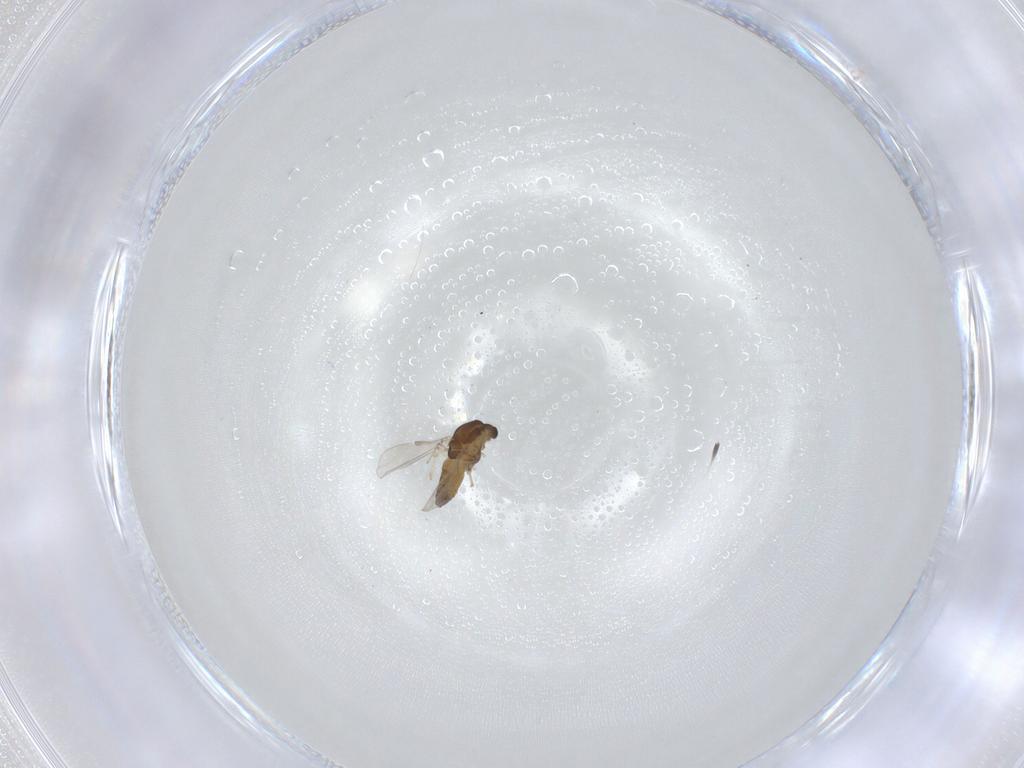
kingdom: Animalia
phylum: Arthropoda
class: Insecta
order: Diptera
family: Chironomidae
